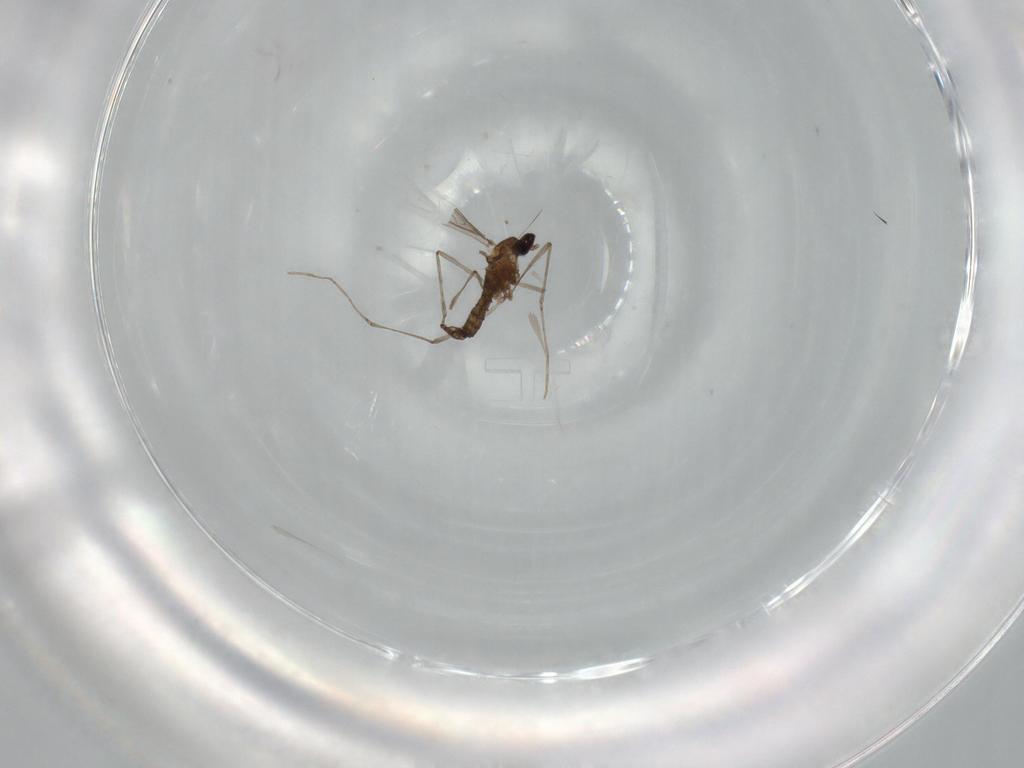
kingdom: Animalia
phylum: Arthropoda
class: Insecta
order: Diptera
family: Cecidomyiidae
